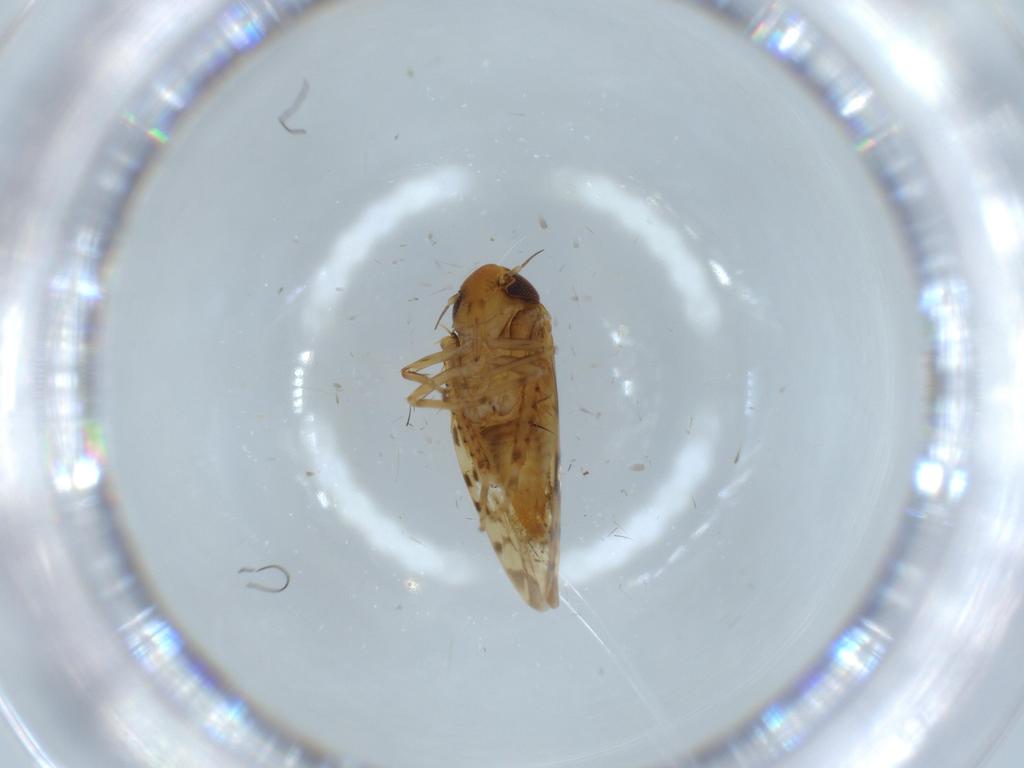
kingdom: Animalia
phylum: Arthropoda
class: Insecta
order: Hemiptera
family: Cicadellidae
